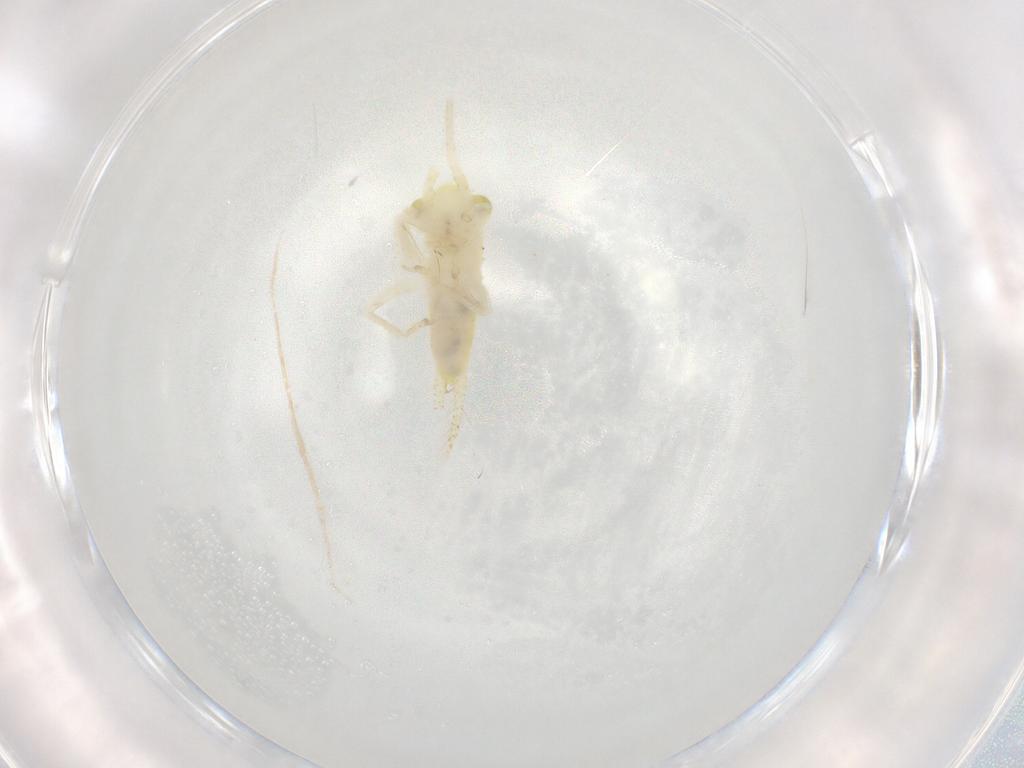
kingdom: Animalia
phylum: Arthropoda
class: Insecta
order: Orthoptera
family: Trigonidiidae
